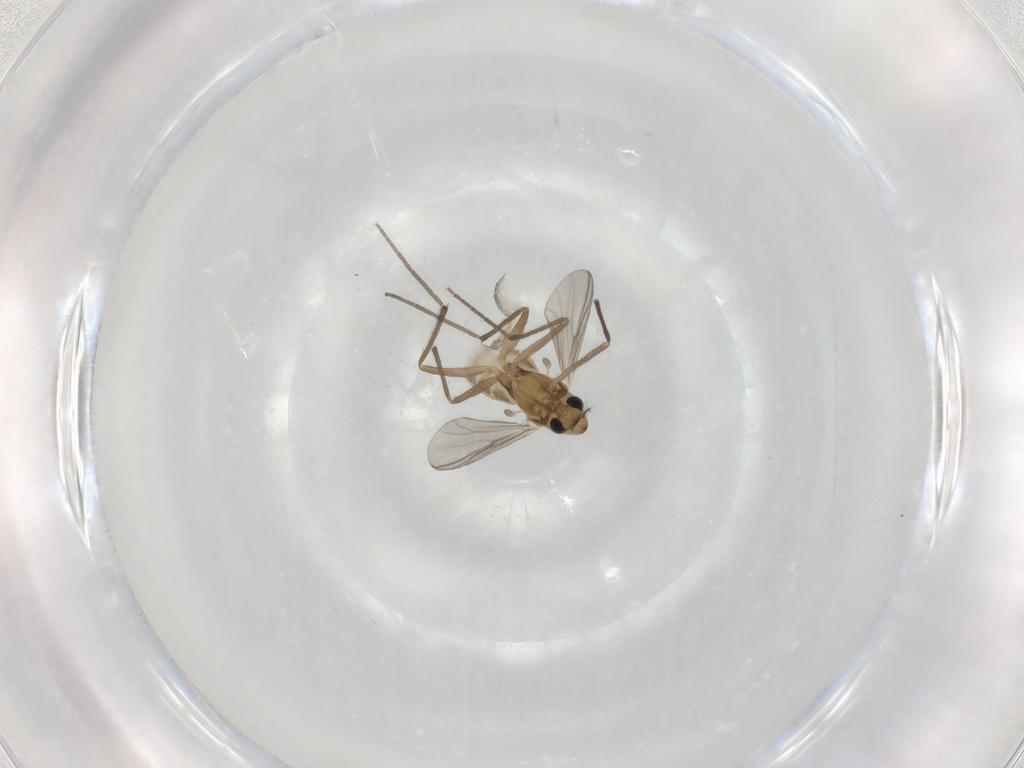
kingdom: Animalia
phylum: Arthropoda
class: Insecta
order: Diptera
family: Chironomidae
